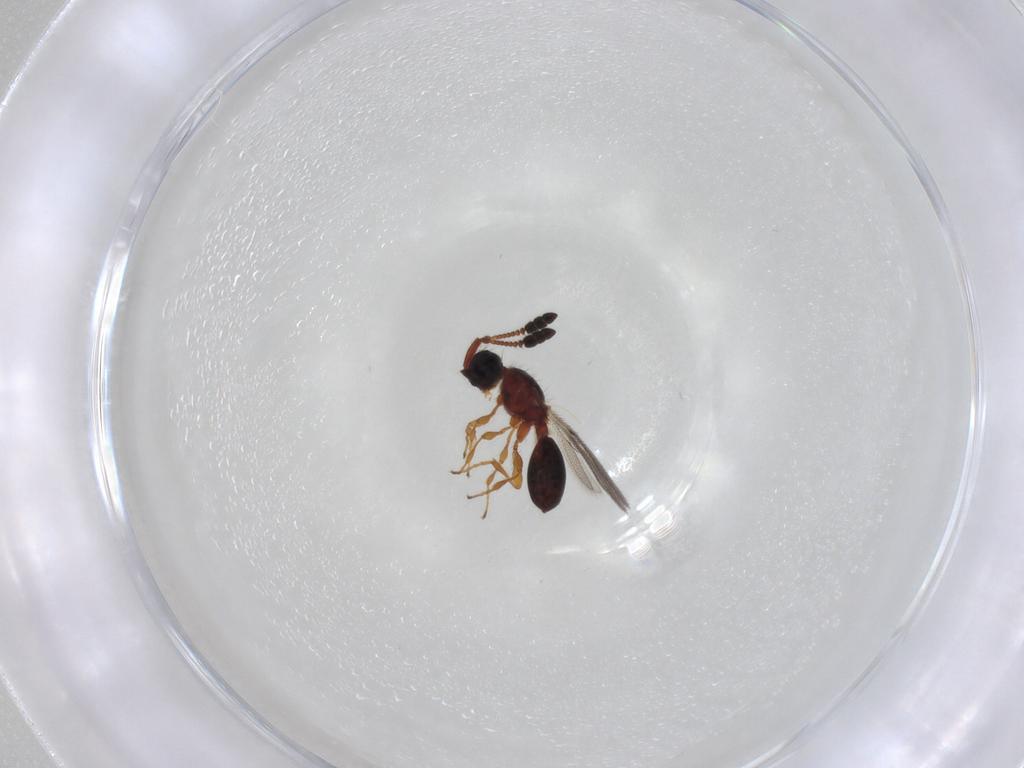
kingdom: Animalia
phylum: Arthropoda
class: Insecta
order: Hymenoptera
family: Diapriidae
